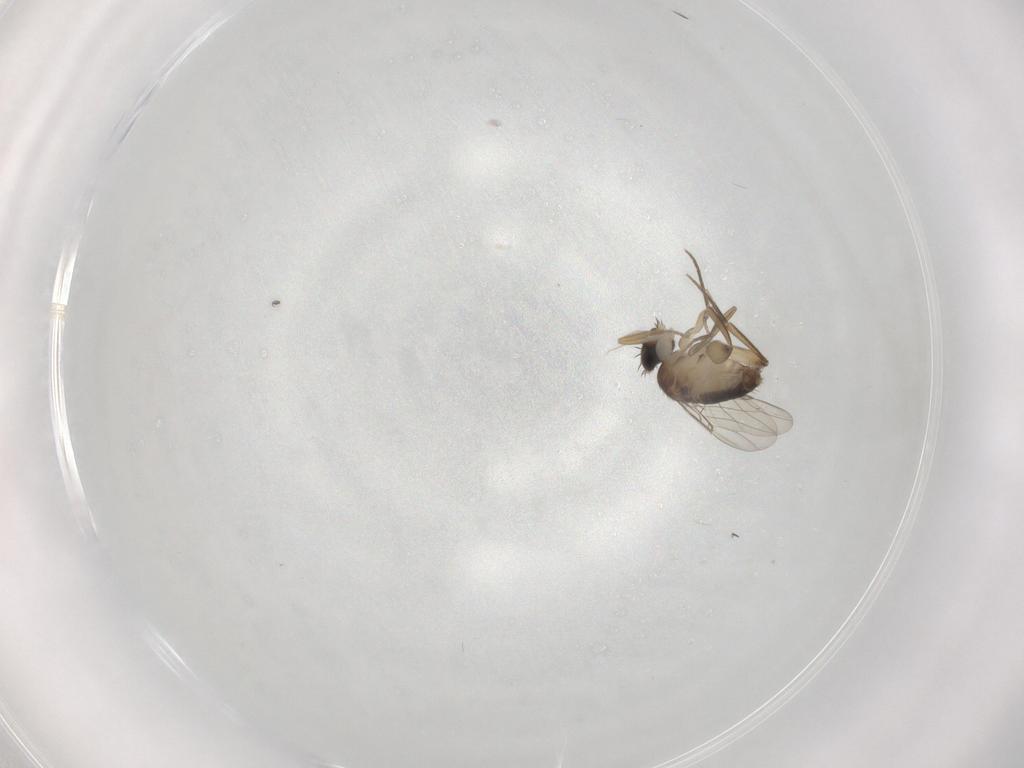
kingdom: Animalia
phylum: Arthropoda
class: Insecta
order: Diptera
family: Phoridae
